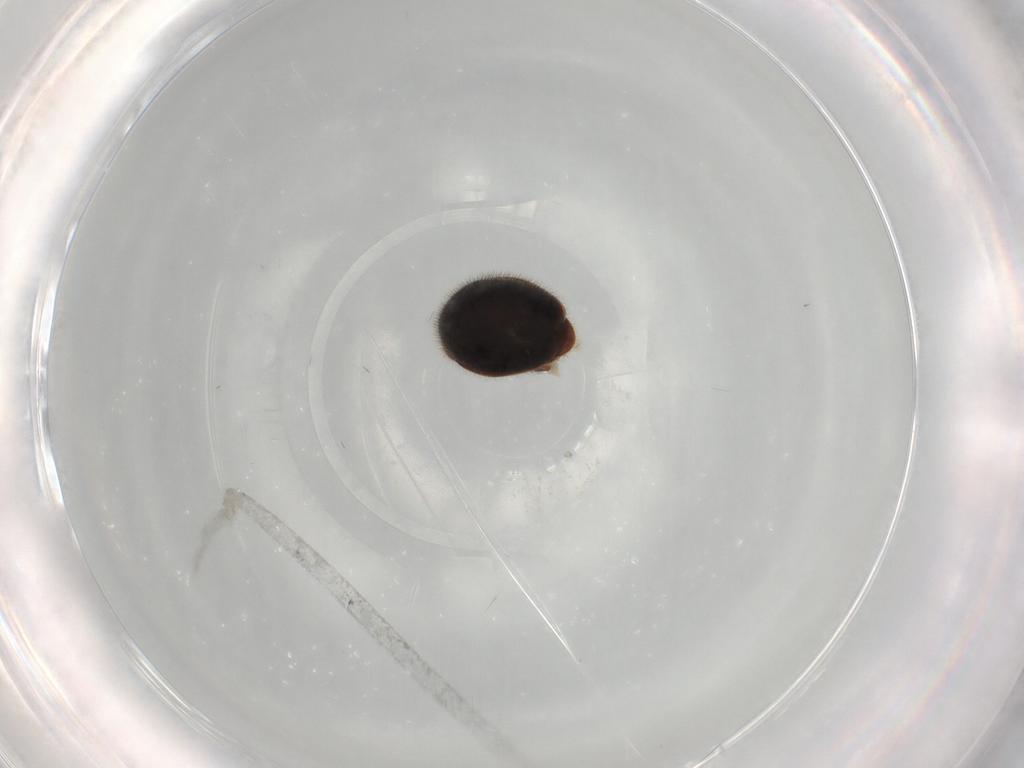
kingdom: Animalia
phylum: Arthropoda
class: Insecta
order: Coleoptera
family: Corylophidae
